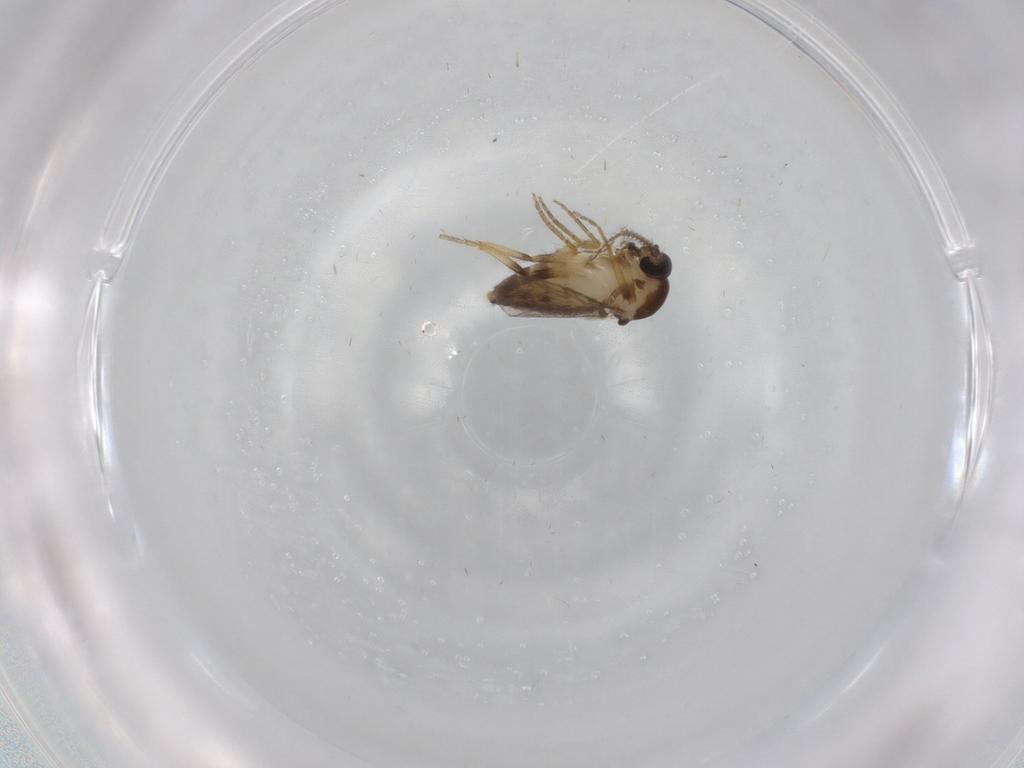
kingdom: Animalia
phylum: Arthropoda
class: Insecta
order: Diptera
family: Ceratopogonidae
